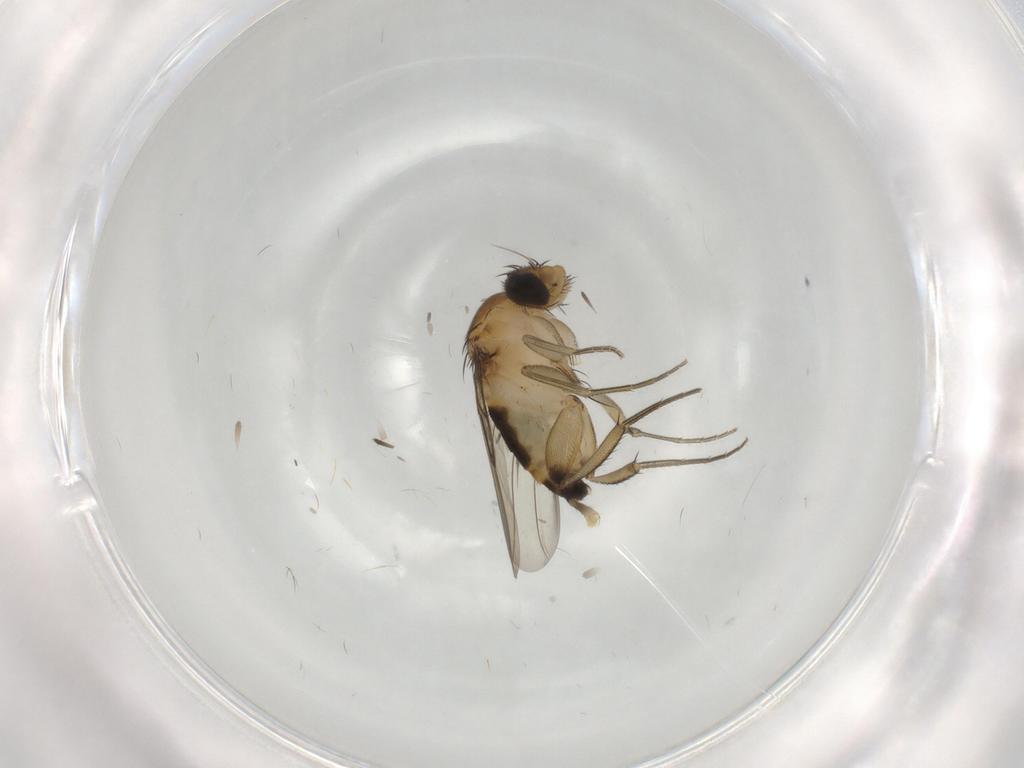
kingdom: Animalia
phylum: Arthropoda
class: Insecta
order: Diptera
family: Phoridae
